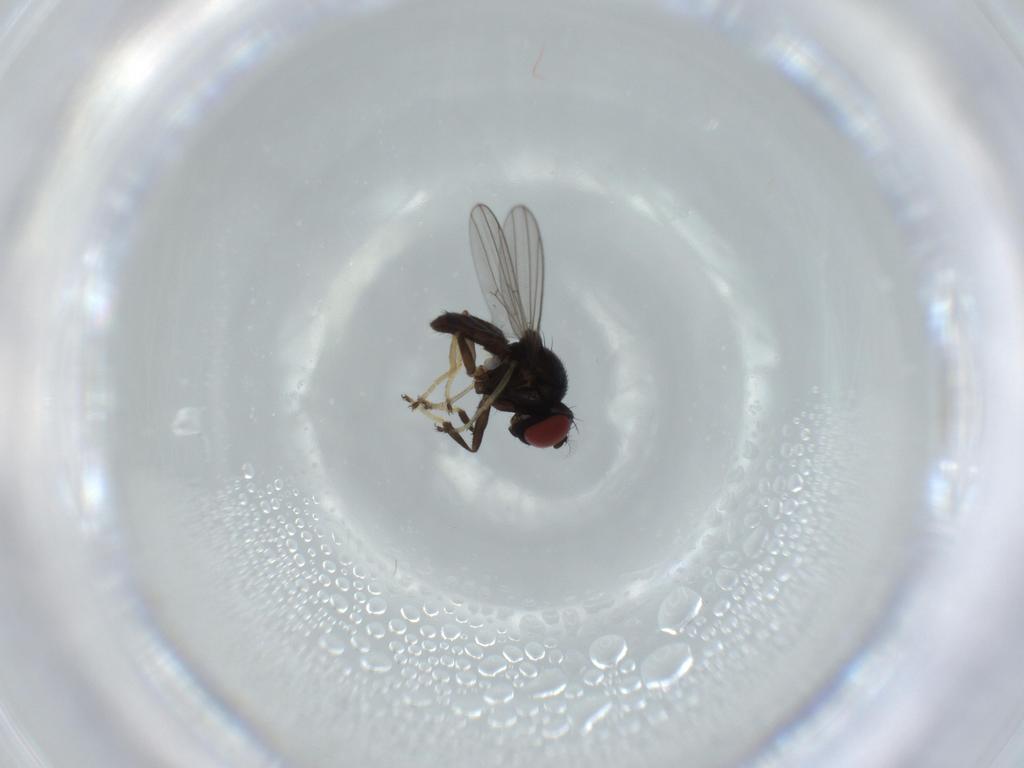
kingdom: Animalia
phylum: Arthropoda
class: Insecta
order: Diptera
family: Ephydridae
